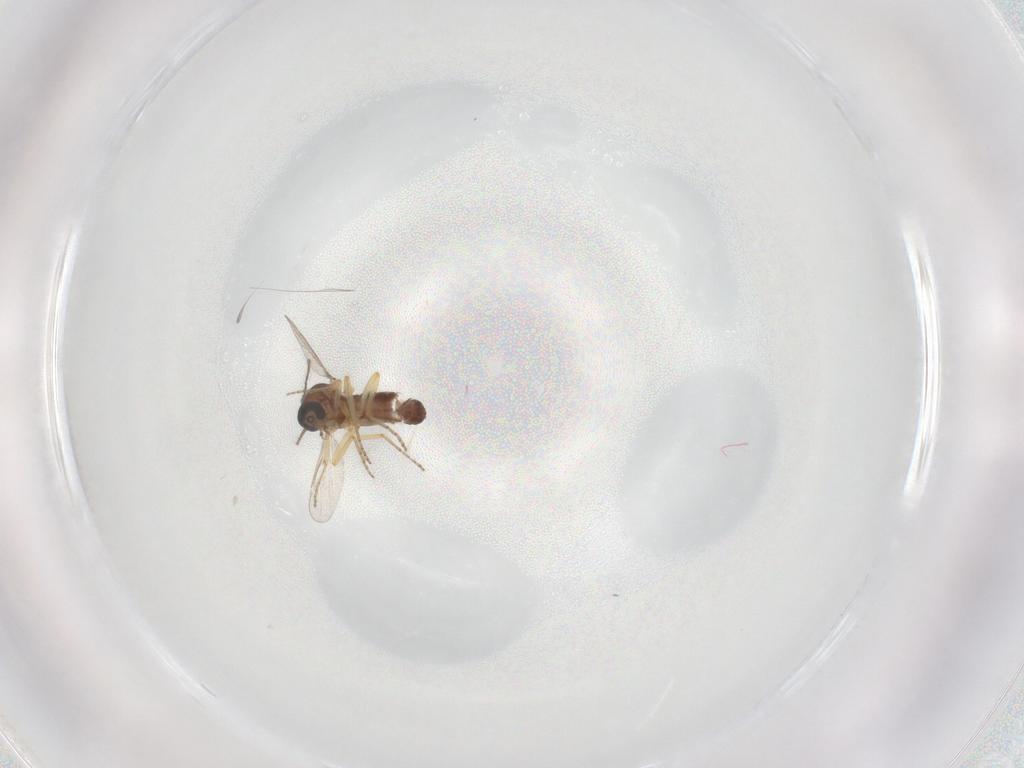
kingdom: Animalia
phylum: Arthropoda
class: Insecta
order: Diptera
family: Ceratopogonidae
